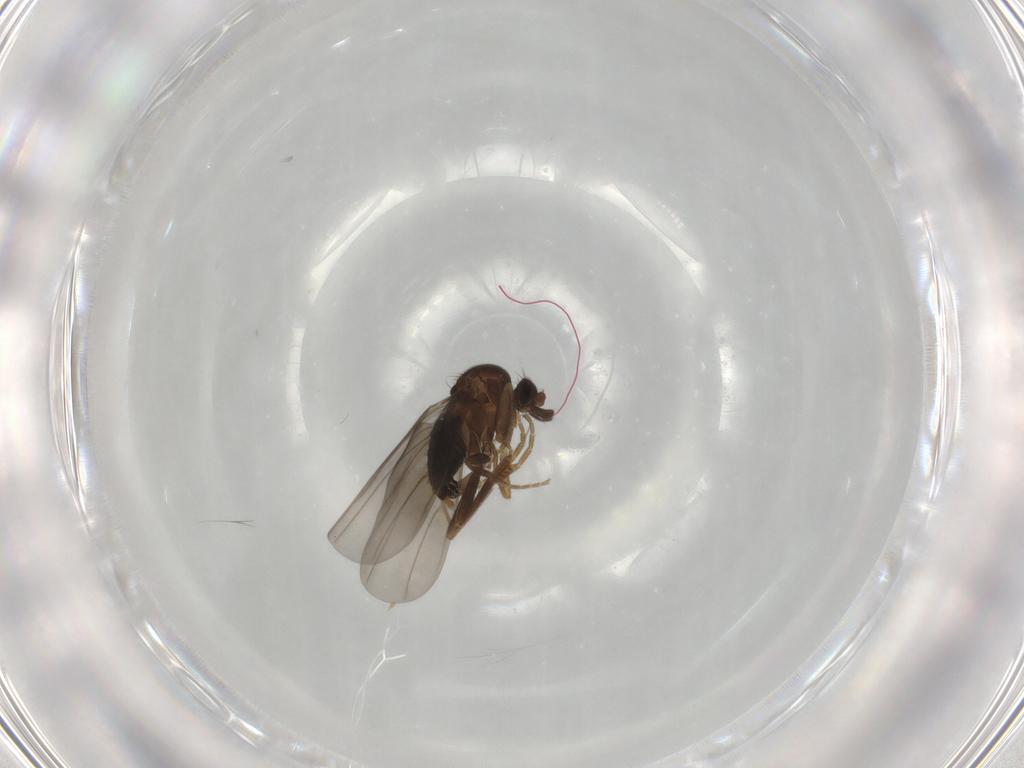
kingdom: Animalia
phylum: Arthropoda
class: Insecta
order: Diptera
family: Phoridae
